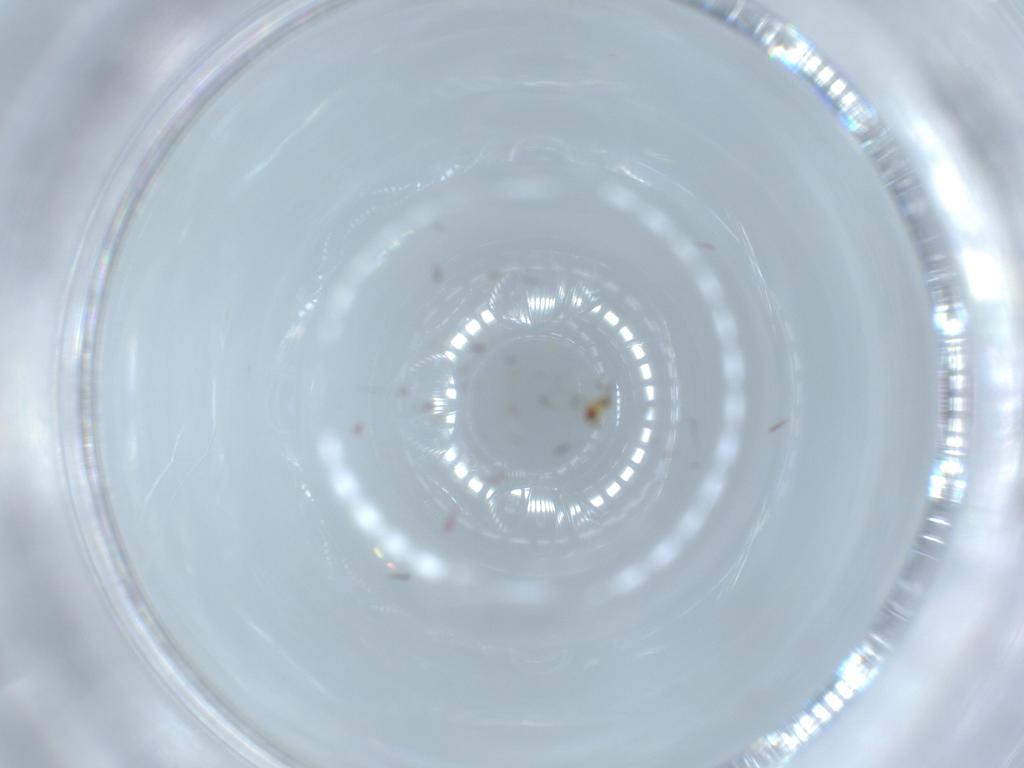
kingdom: Animalia
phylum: Arthropoda
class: Insecta
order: Hymenoptera
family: Trichogrammatidae
